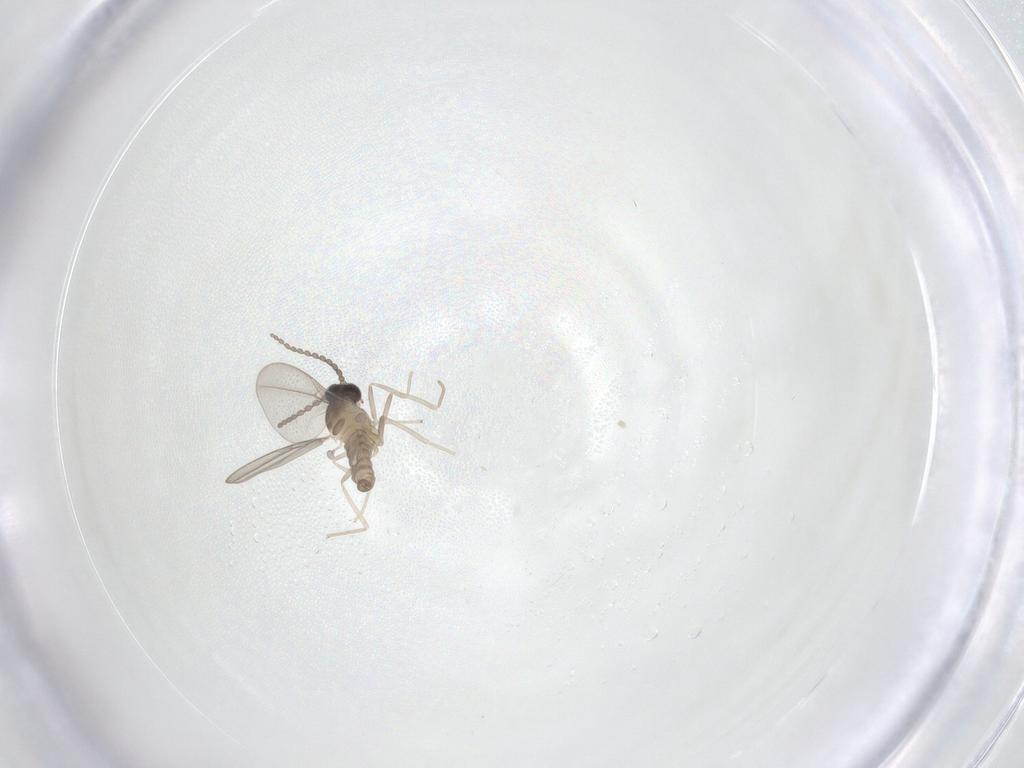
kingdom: Animalia
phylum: Arthropoda
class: Insecta
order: Diptera
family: Cecidomyiidae
